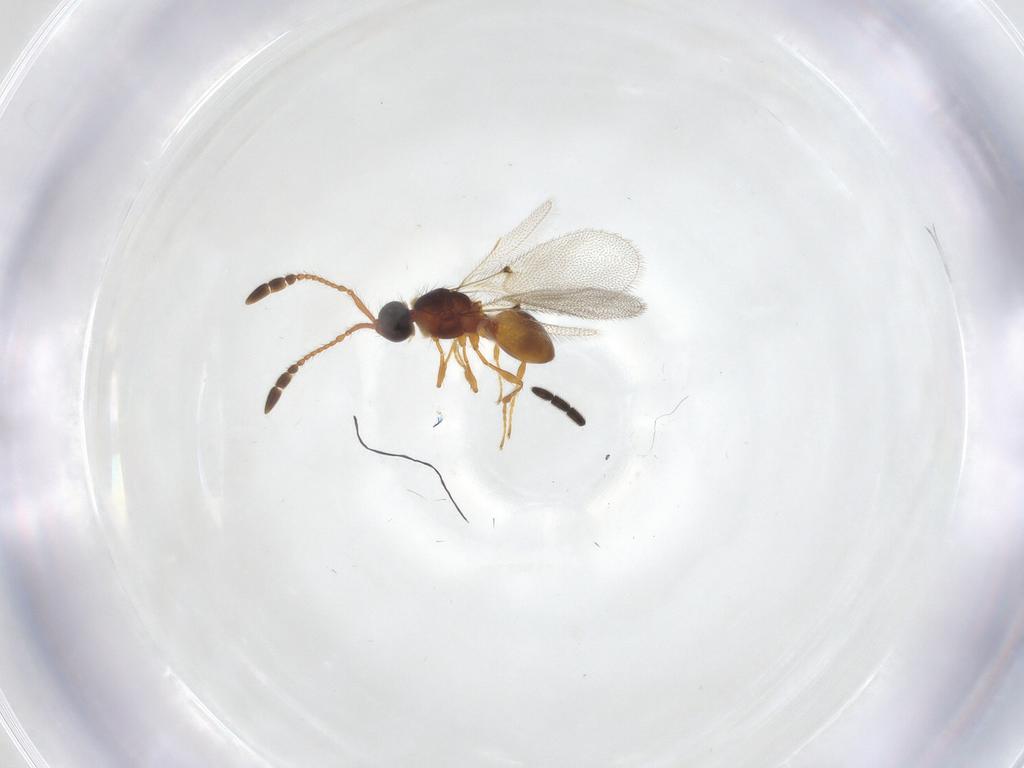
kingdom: Animalia
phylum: Arthropoda
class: Insecta
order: Hymenoptera
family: Diapriidae
